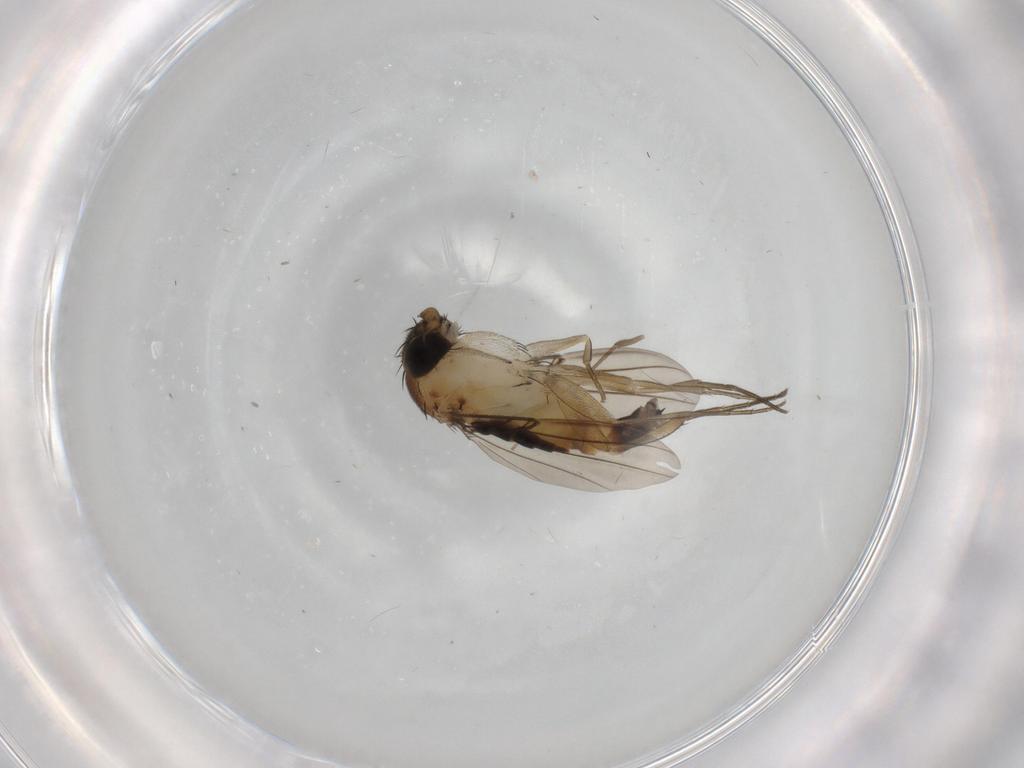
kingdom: Animalia
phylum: Arthropoda
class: Insecta
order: Diptera
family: Phoridae
